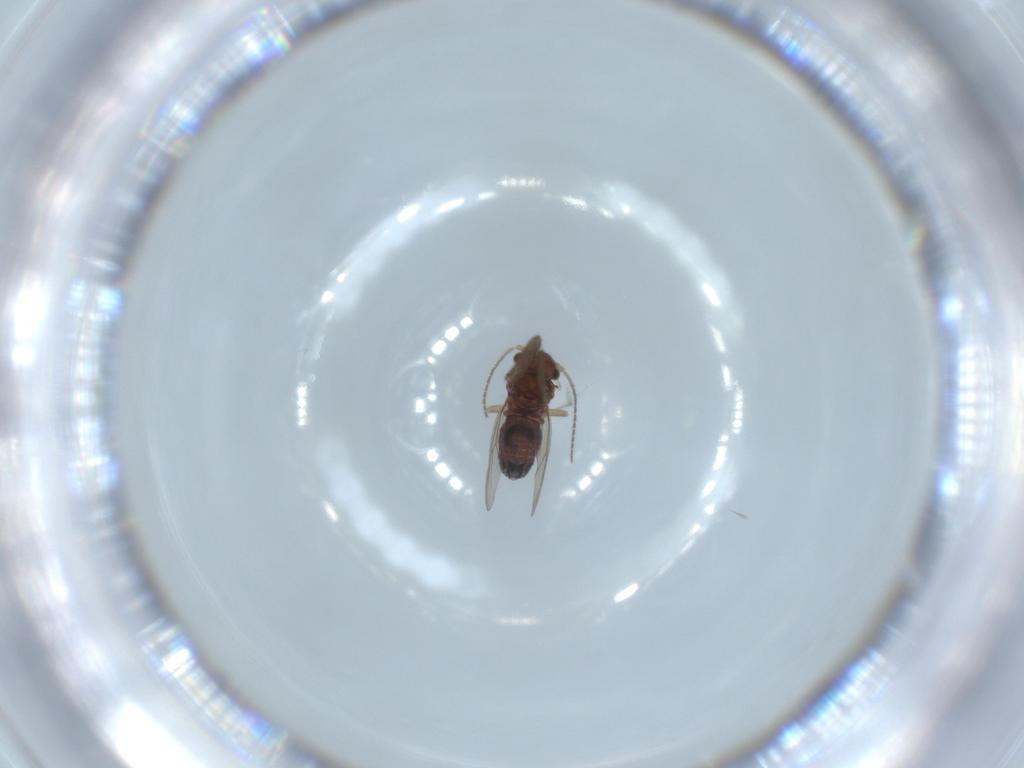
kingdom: Animalia
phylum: Arthropoda
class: Insecta
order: Psocodea
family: Ectopsocidae
